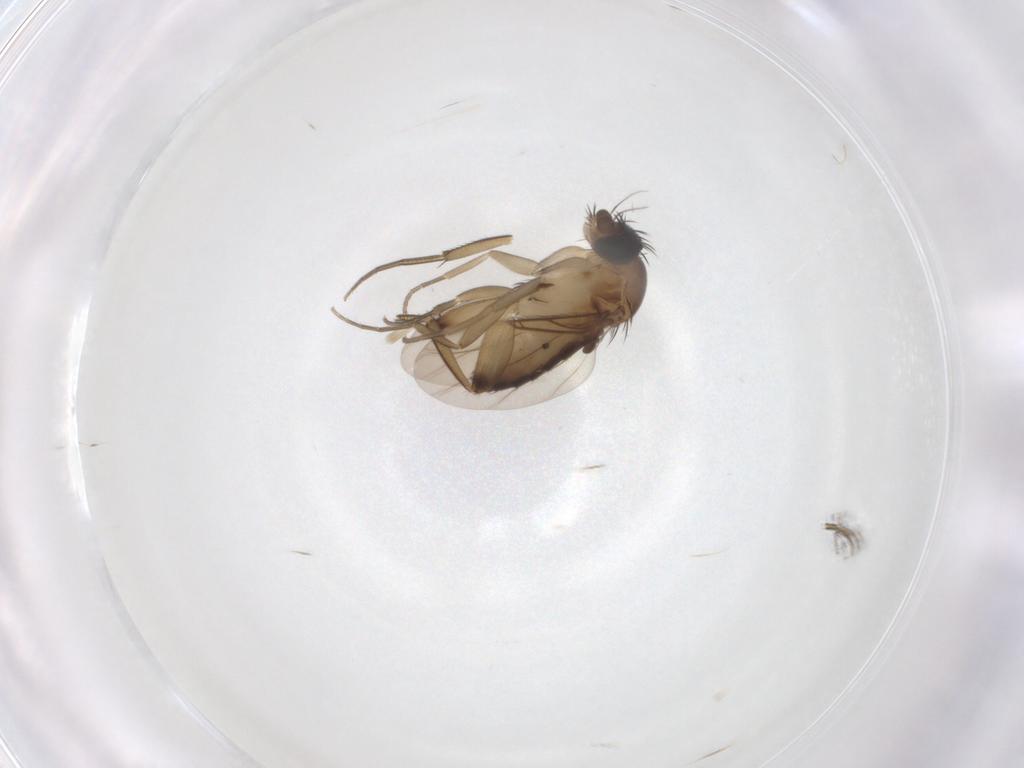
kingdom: Animalia
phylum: Arthropoda
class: Insecta
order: Diptera
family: Phoridae
